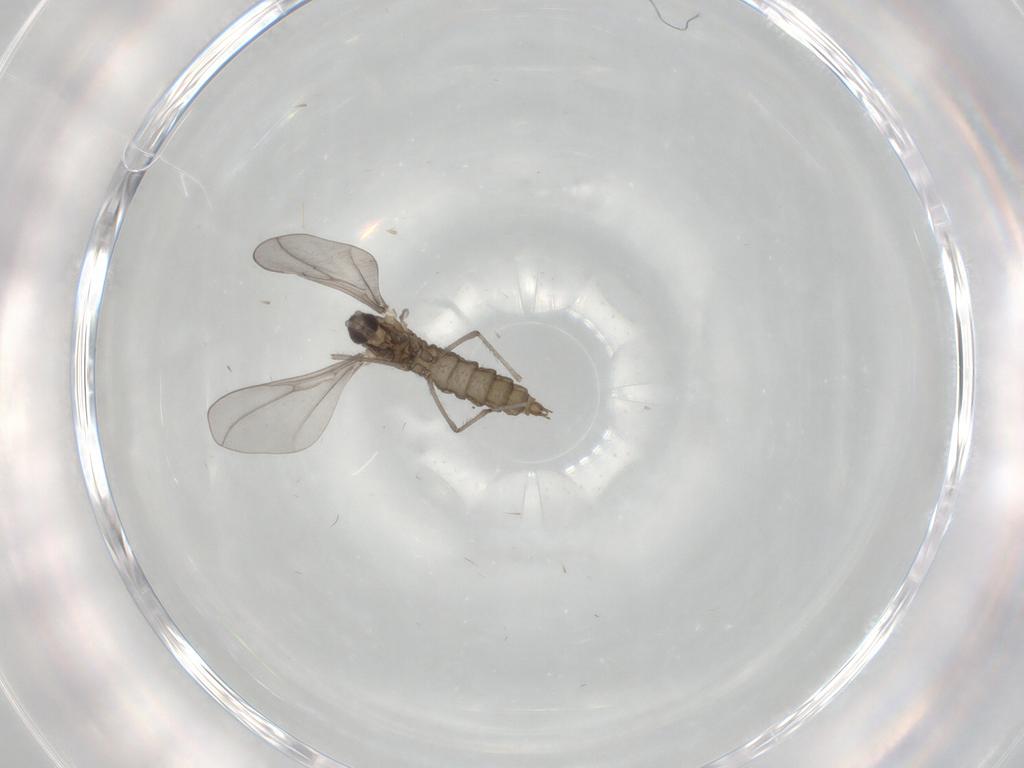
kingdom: Animalia
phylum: Arthropoda
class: Insecta
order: Diptera
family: Cecidomyiidae
